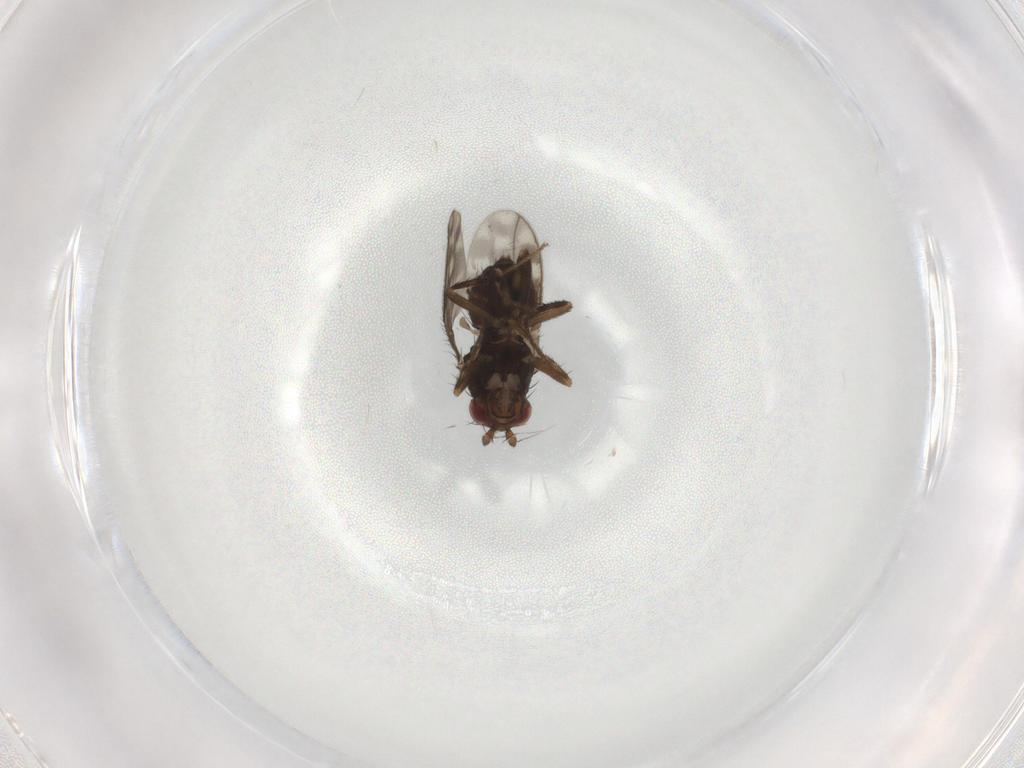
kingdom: Animalia
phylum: Arthropoda
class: Insecta
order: Diptera
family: Sphaeroceridae
